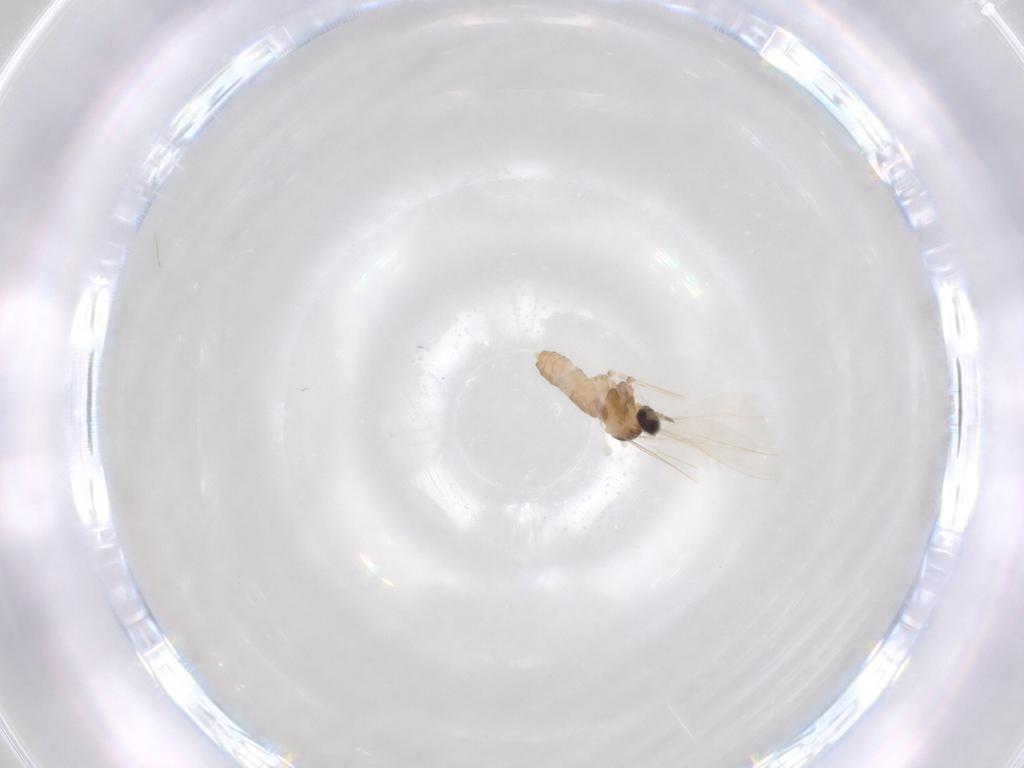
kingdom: Animalia
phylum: Arthropoda
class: Insecta
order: Diptera
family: Cecidomyiidae
